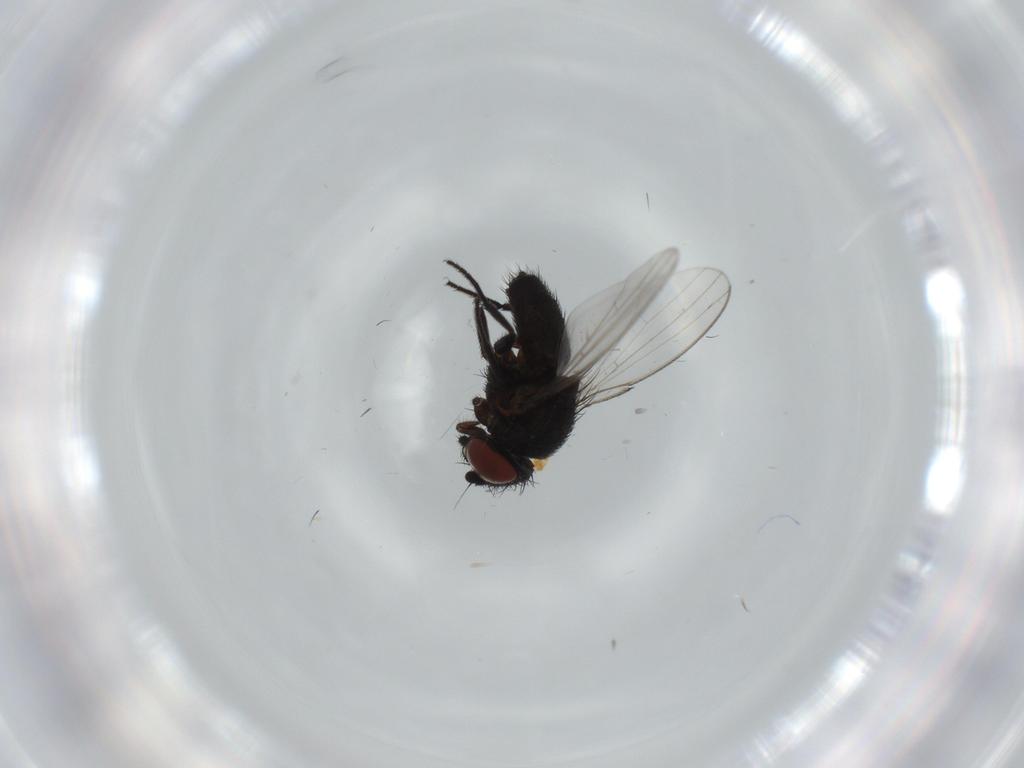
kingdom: Animalia
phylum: Arthropoda
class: Insecta
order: Diptera
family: Milichiidae
